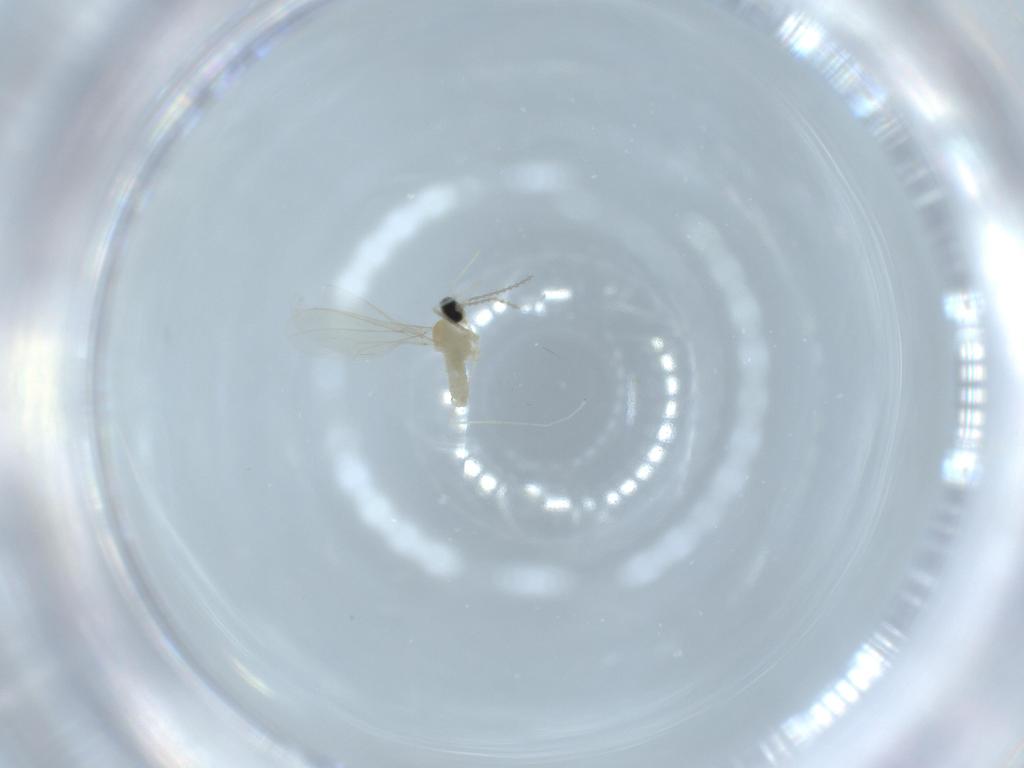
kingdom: Animalia
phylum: Arthropoda
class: Insecta
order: Diptera
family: Cecidomyiidae
